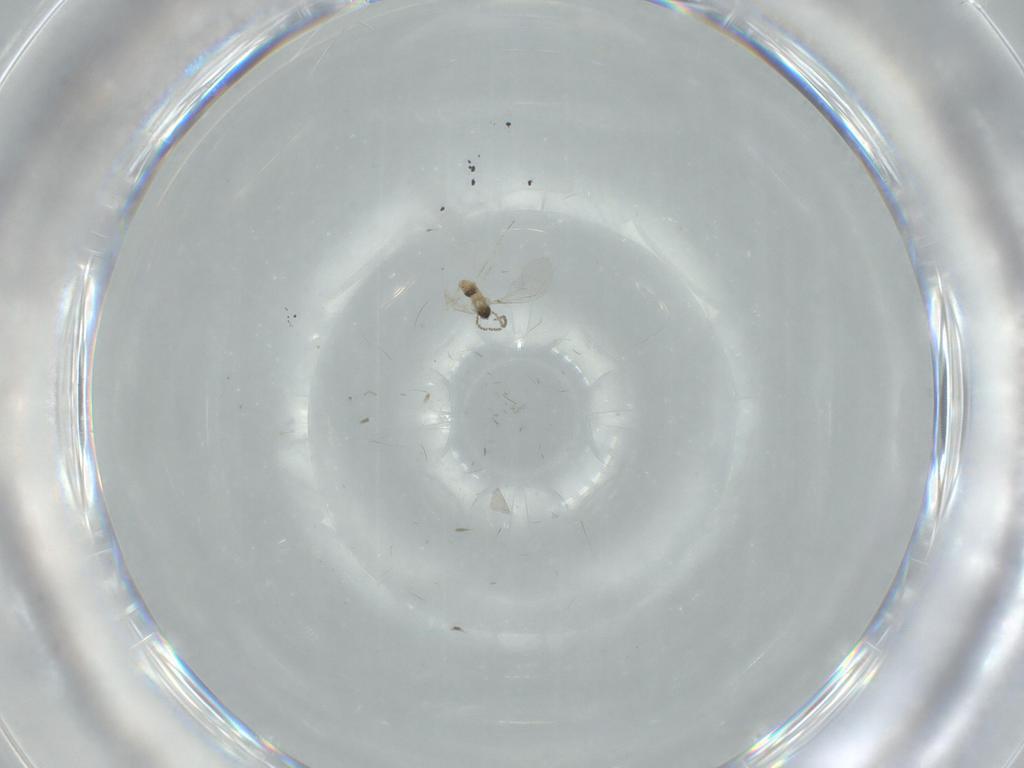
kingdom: Animalia
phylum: Arthropoda
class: Insecta
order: Diptera
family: Cecidomyiidae
